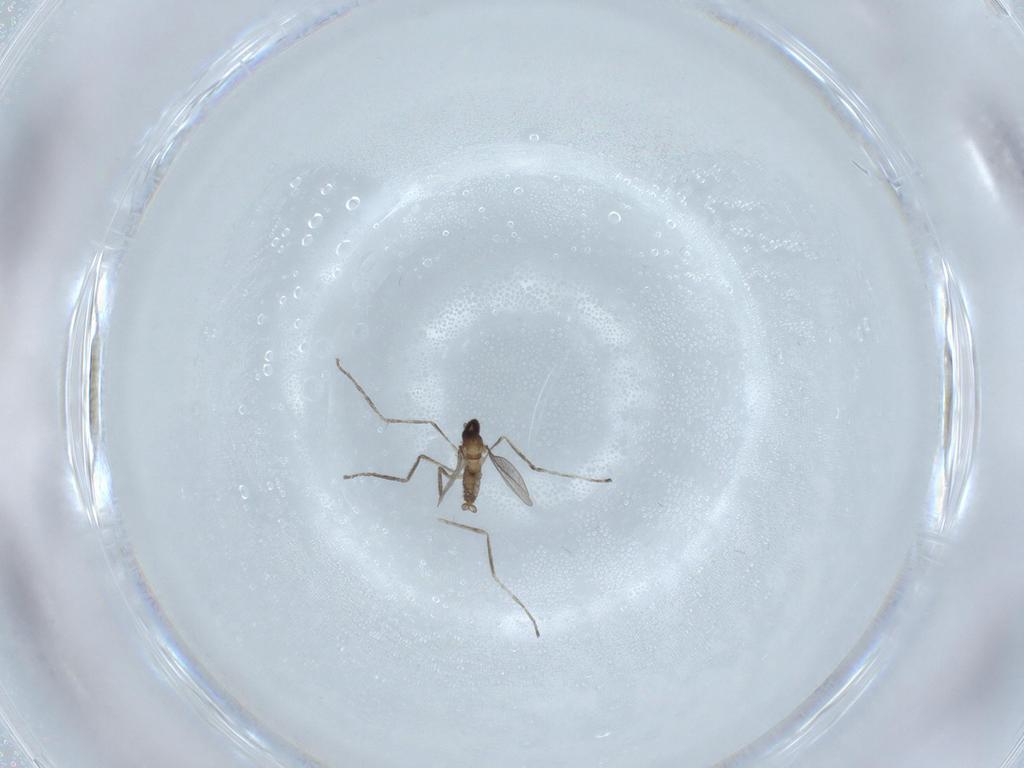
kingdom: Animalia
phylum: Arthropoda
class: Insecta
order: Diptera
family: Cecidomyiidae
